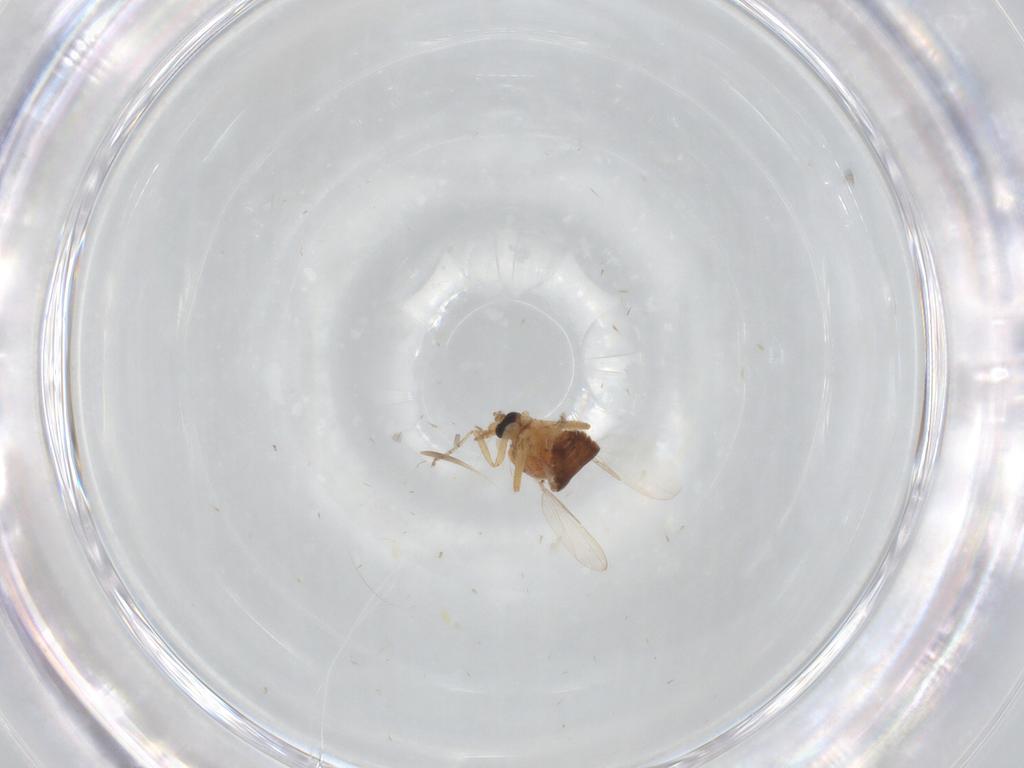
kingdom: Animalia
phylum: Arthropoda
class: Insecta
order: Diptera
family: Ceratopogonidae
